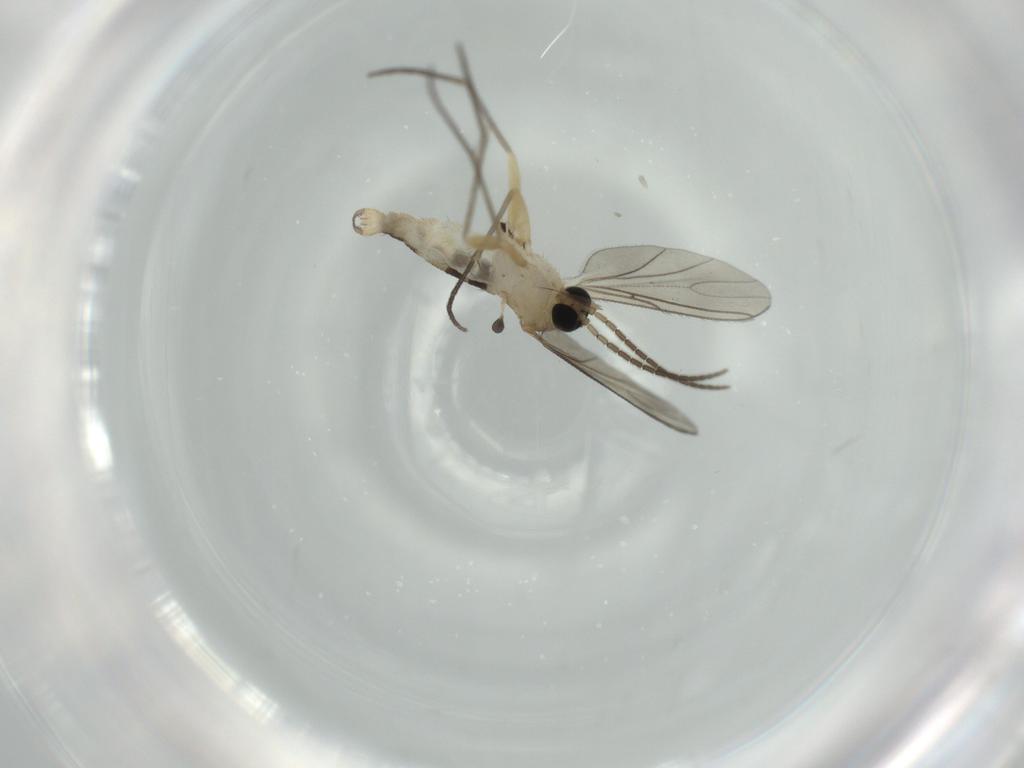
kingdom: Animalia
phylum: Arthropoda
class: Insecta
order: Diptera
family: Sciaridae
